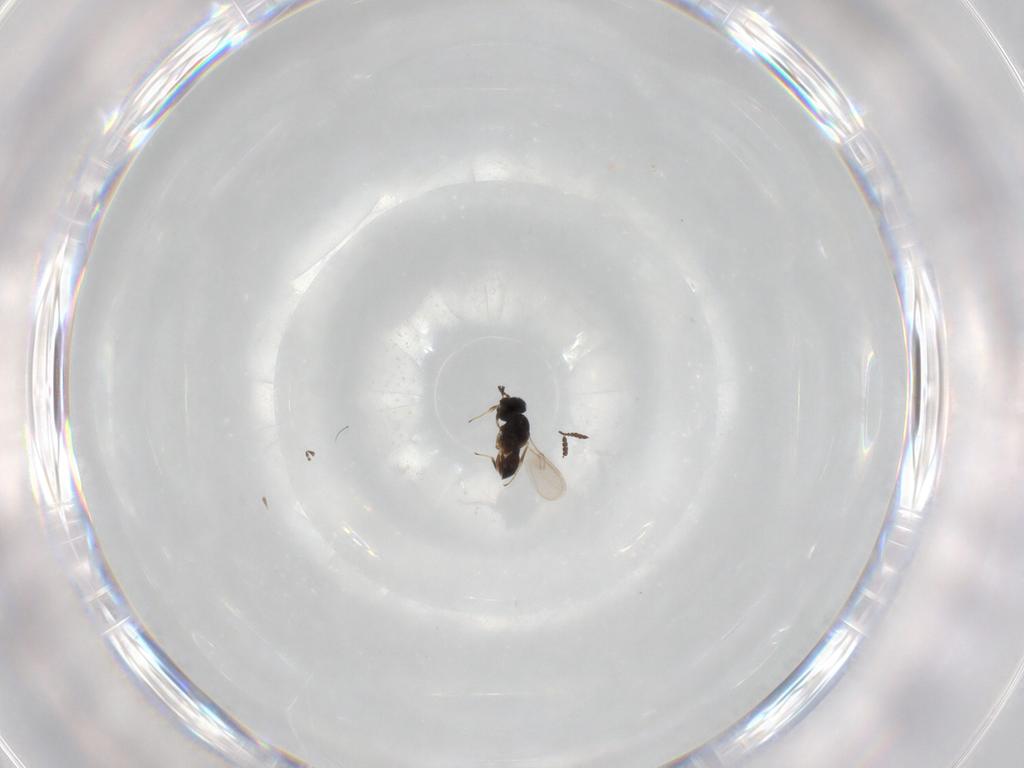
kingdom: Animalia
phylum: Arthropoda
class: Insecta
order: Hymenoptera
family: Scelionidae
